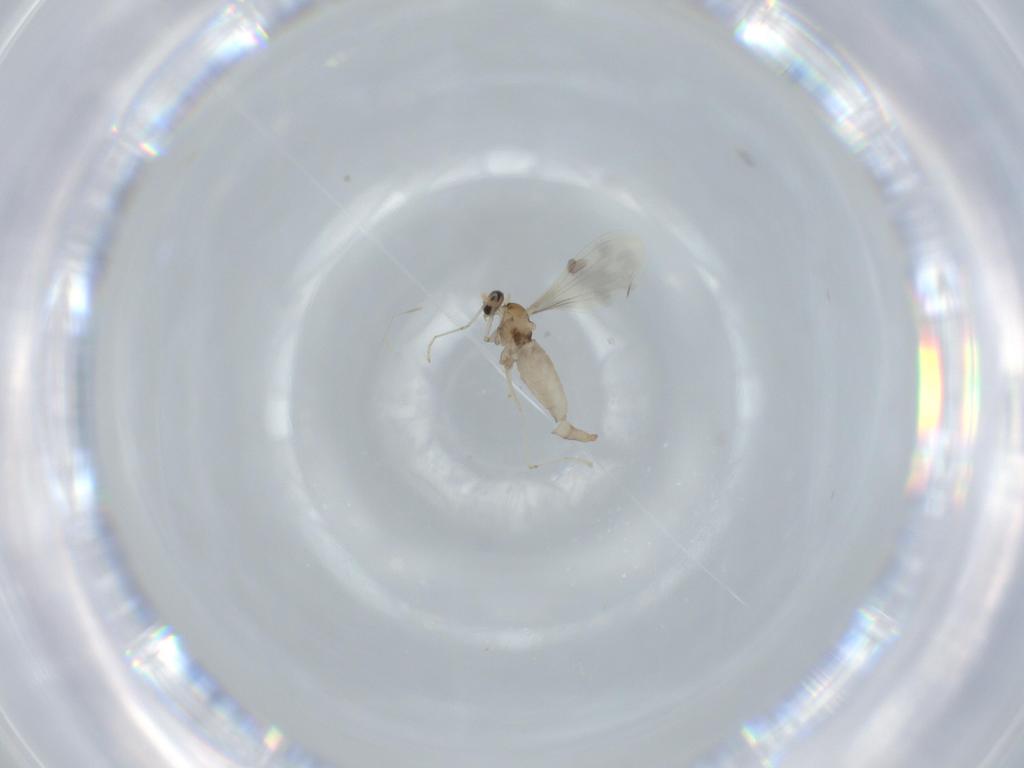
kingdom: Animalia
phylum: Arthropoda
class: Insecta
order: Diptera
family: Cecidomyiidae
